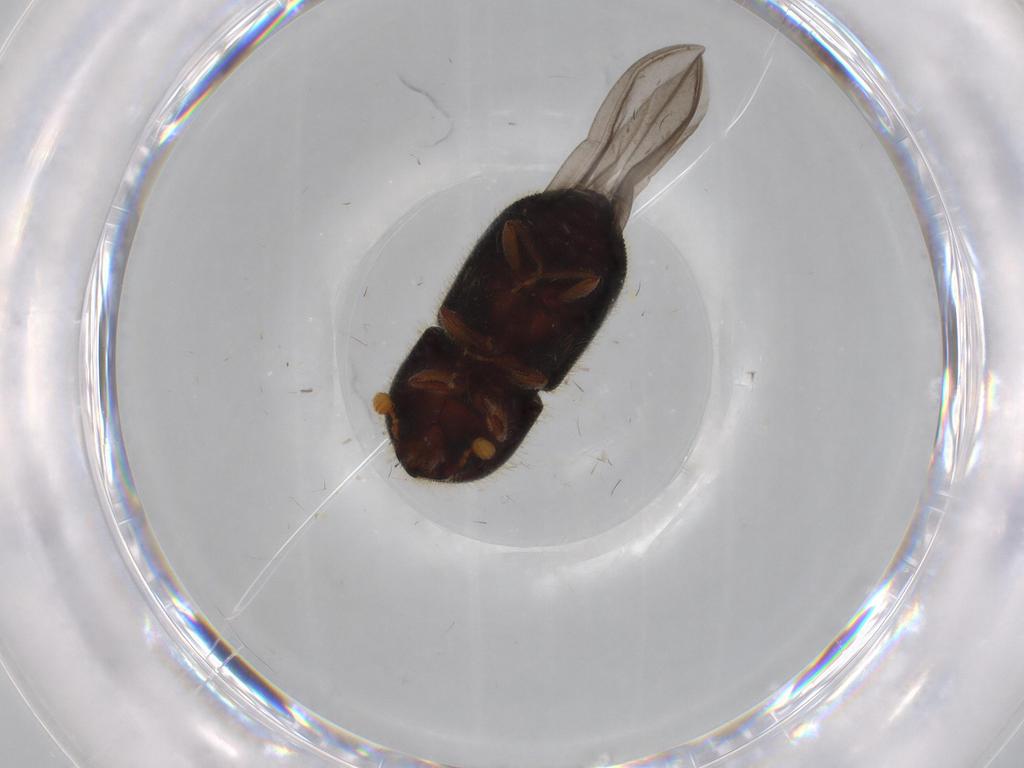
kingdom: Animalia
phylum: Arthropoda
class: Insecta
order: Coleoptera
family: Curculionidae
